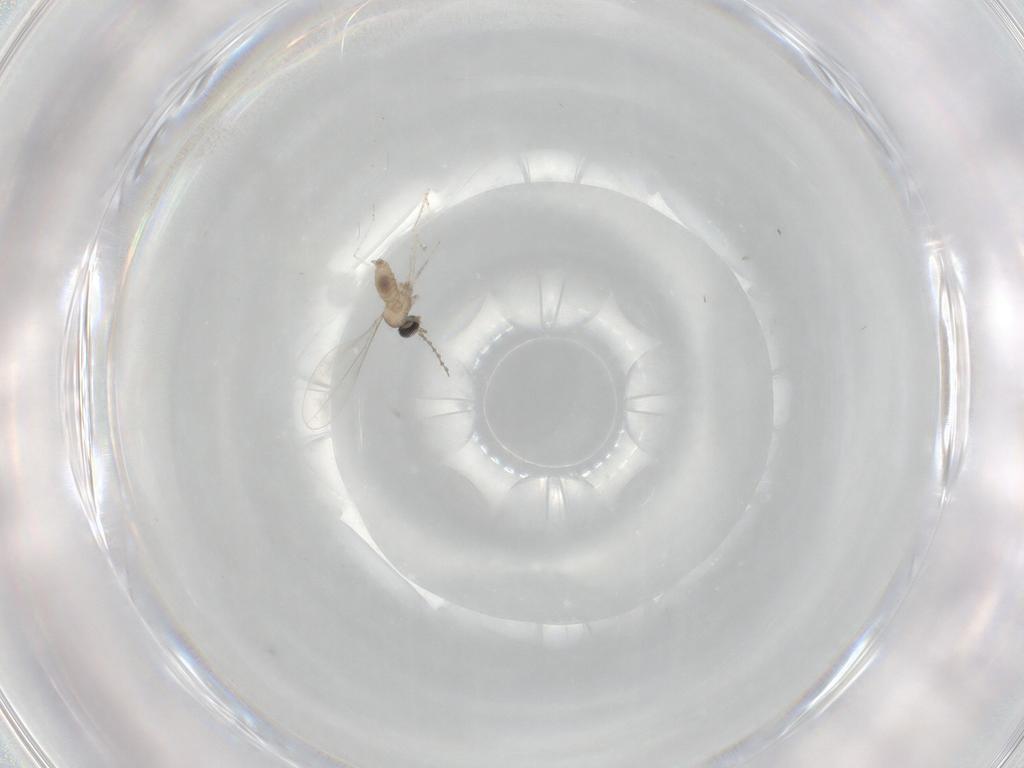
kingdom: Animalia
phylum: Arthropoda
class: Insecta
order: Diptera
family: Cecidomyiidae
